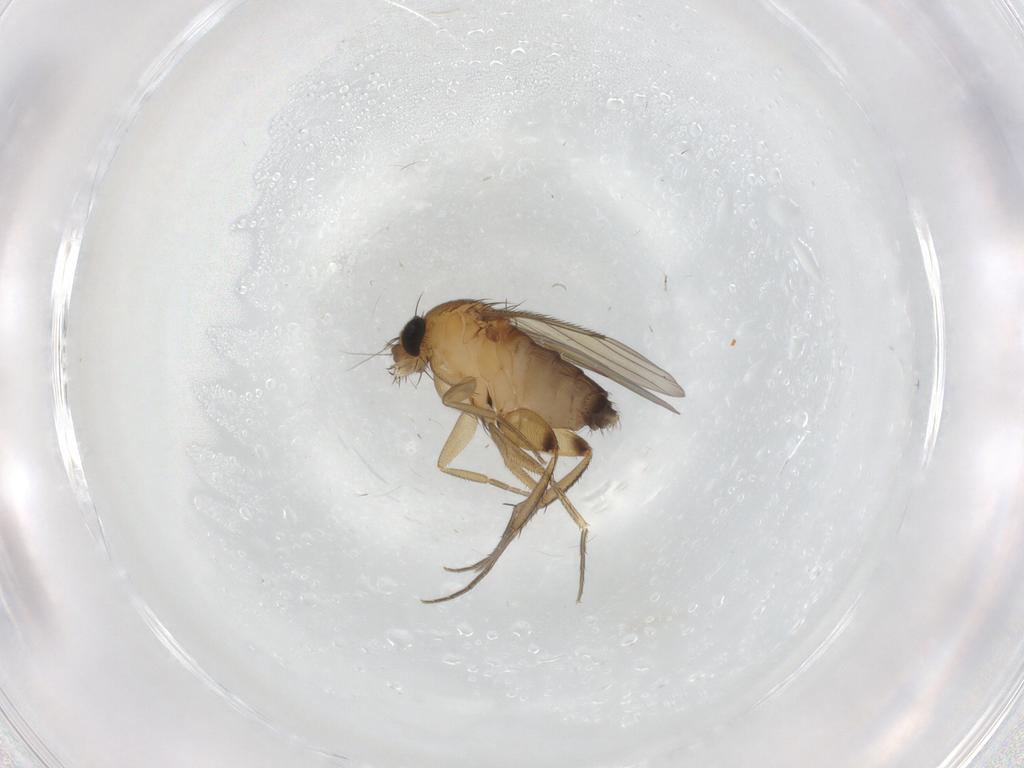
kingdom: Animalia
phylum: Arthropoda
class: Insecta
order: Diptera
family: Phoridae
